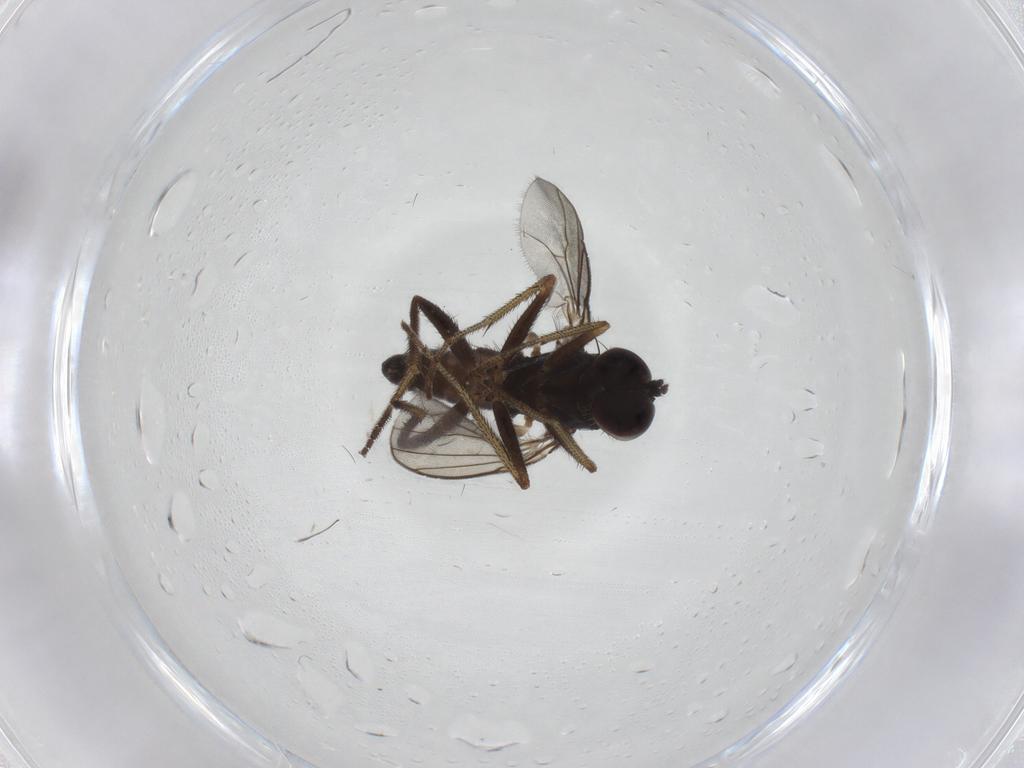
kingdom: Animalia
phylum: Arthropoda
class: Insecta
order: Diptera
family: Dolichopodidae
